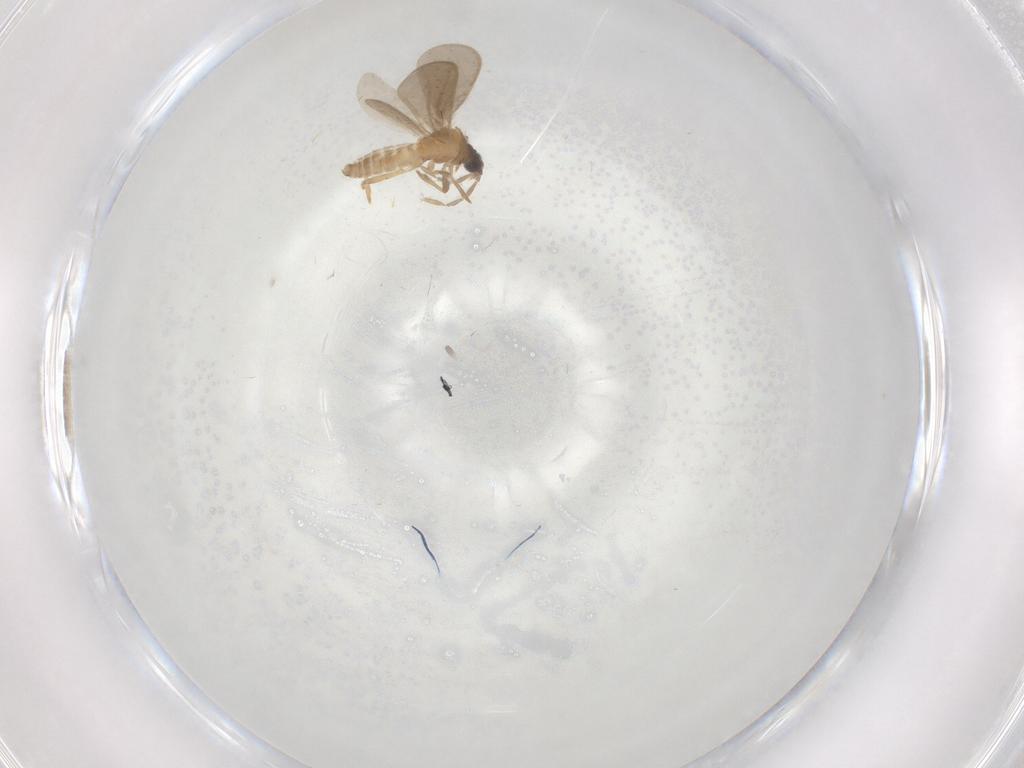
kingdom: Animalia
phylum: Arthropoda
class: Insecta
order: Hemiptera
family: Enicocephalidae
